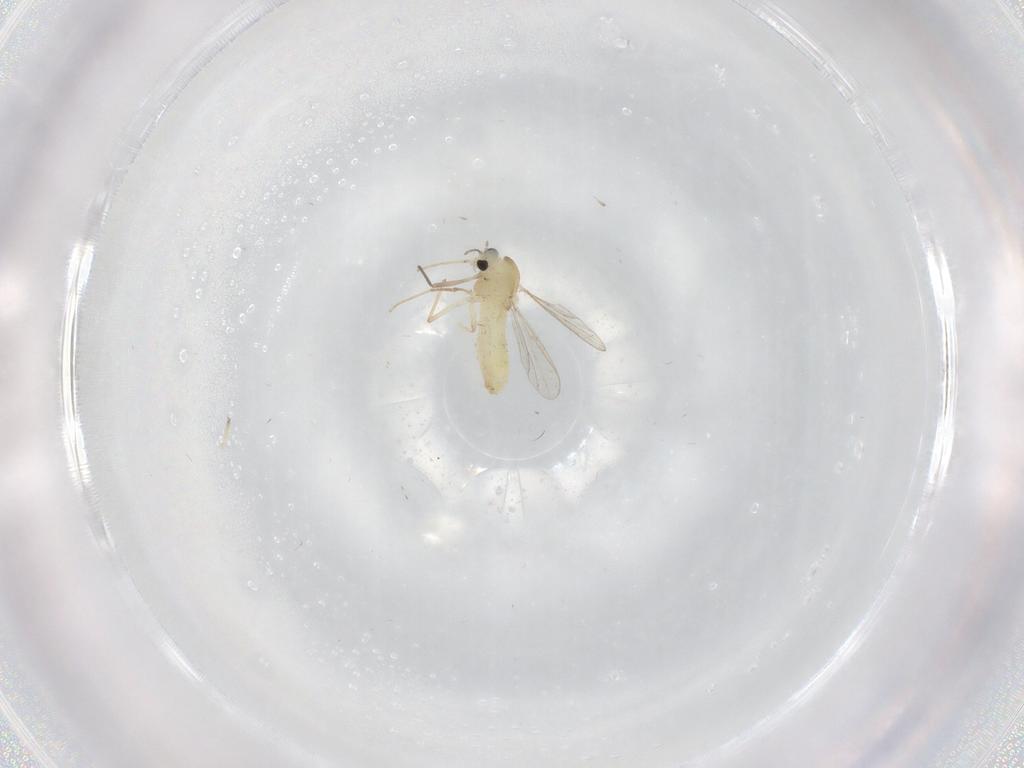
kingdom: Animalia
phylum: Arthropoda
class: Insecta
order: Diptera
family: Chironomidae
